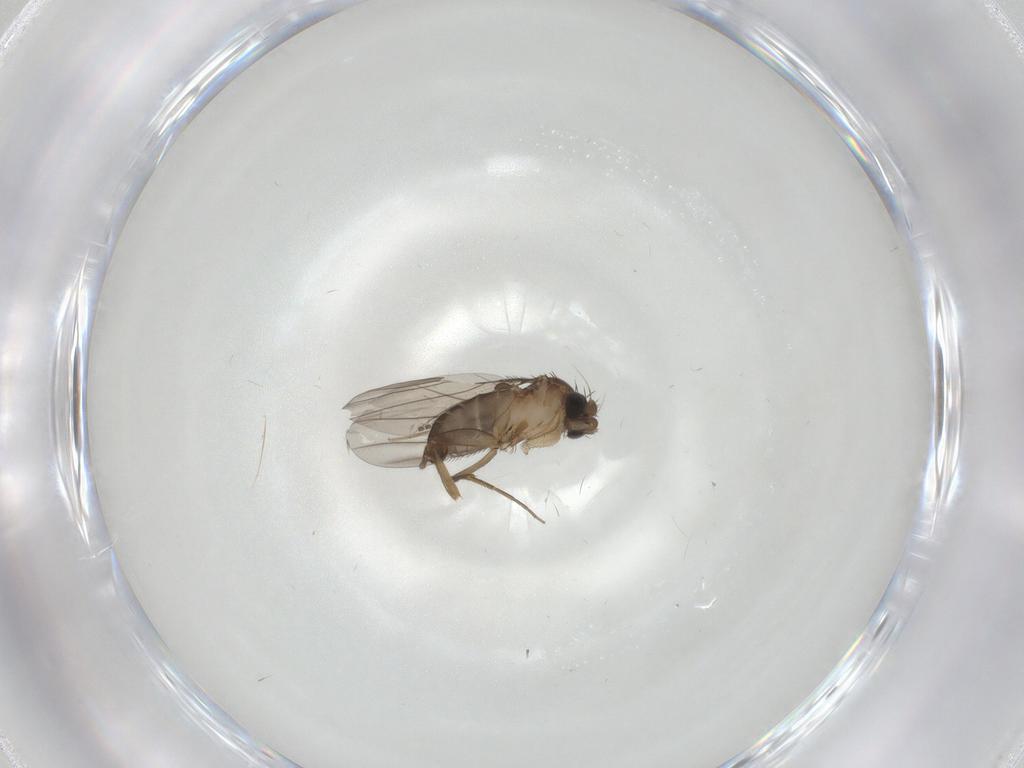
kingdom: Animalia
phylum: Arthropoda
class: Insecta
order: Diptera
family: Phoridae
